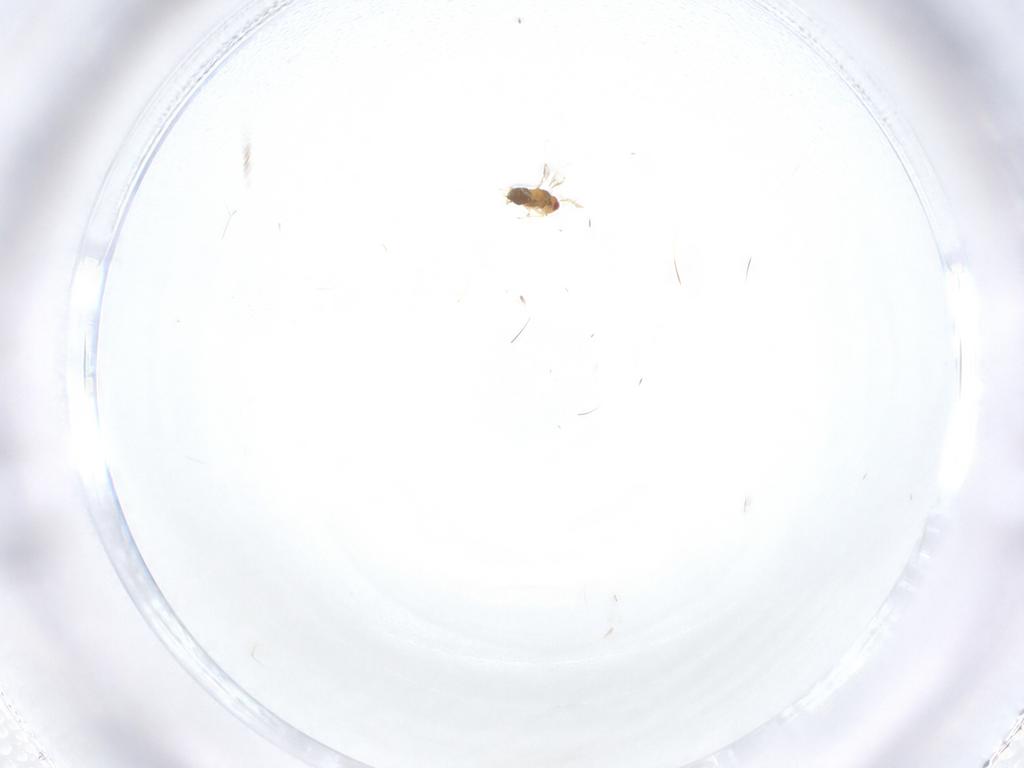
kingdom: Animalia
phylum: Arthropoda
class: Insecta
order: Hymenoptera
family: Trichogrammatidae
